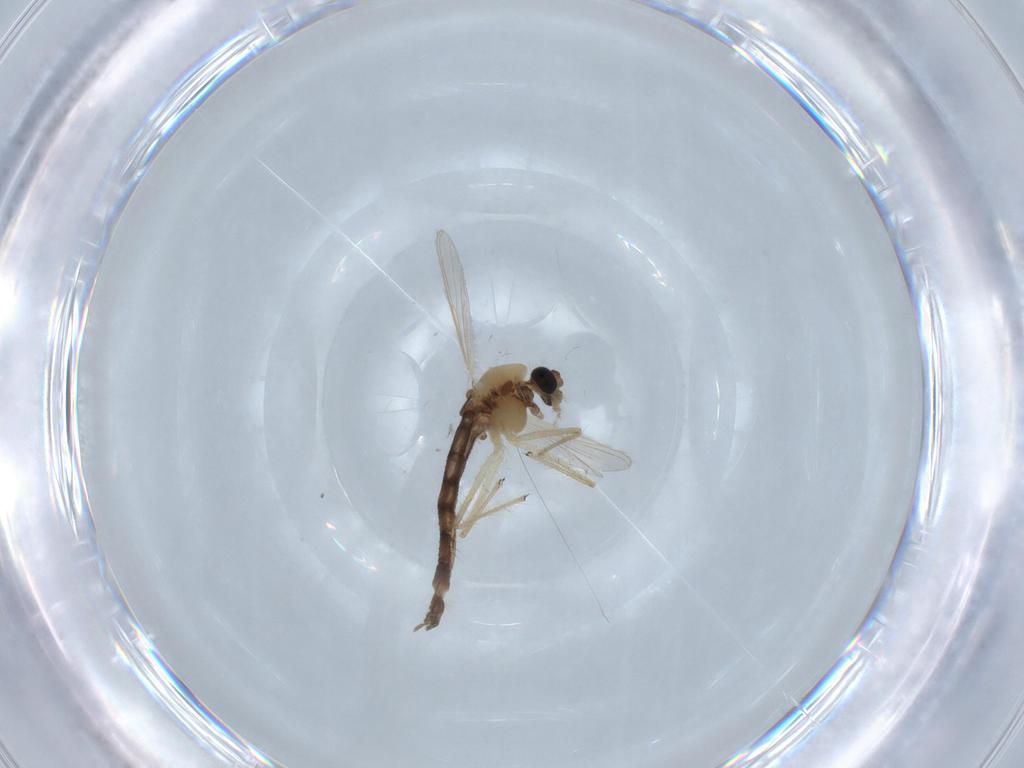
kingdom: Animalia
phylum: Arthropoda
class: Insecta
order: Diptera
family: Chironomidae
